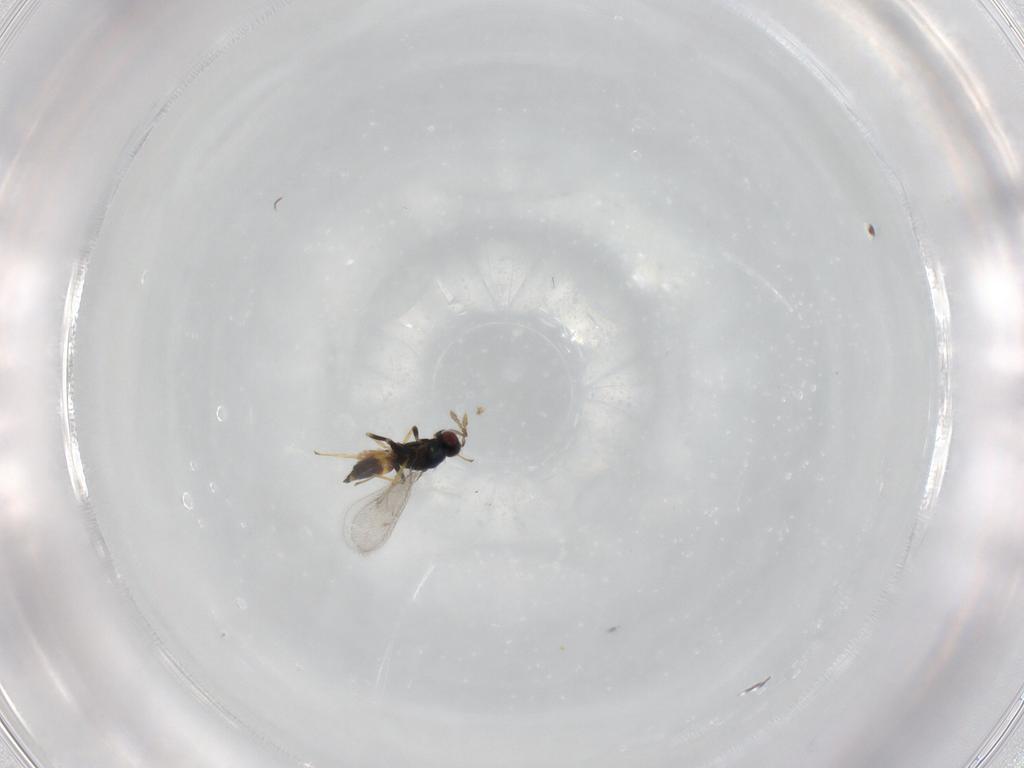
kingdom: Animalia
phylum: Arthropoda
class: Insecta
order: Hymenoptera
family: Eulophidae
